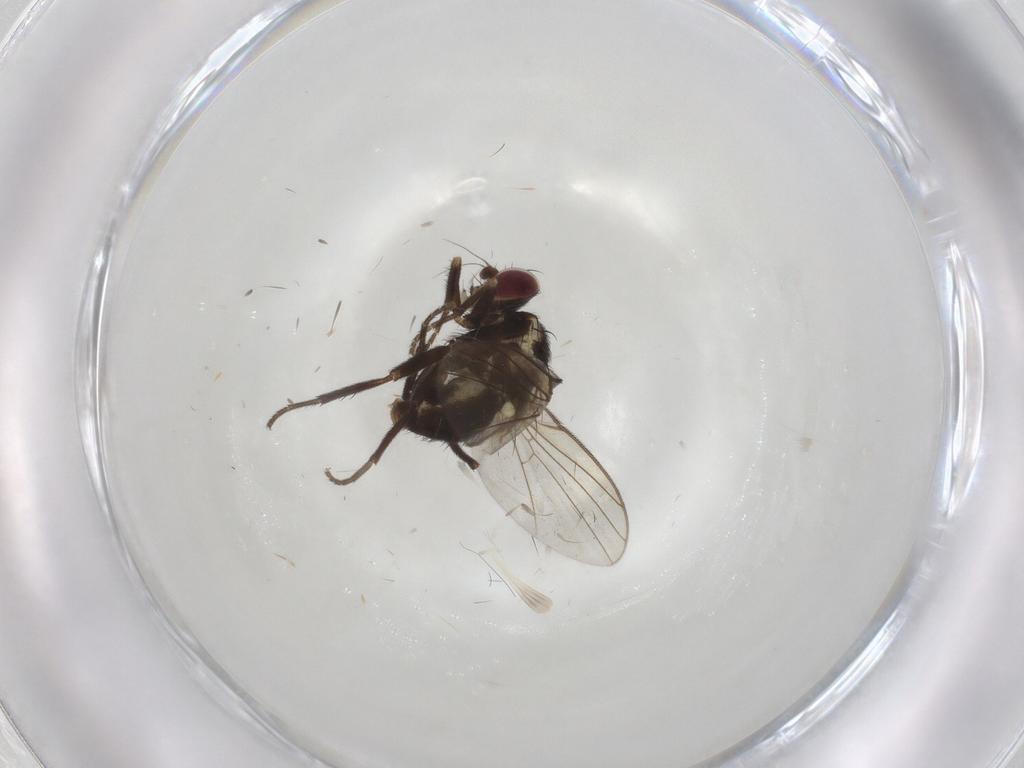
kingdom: Animalia
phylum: Arthropoda
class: Insecta
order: Diptera
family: Agromyzidae
